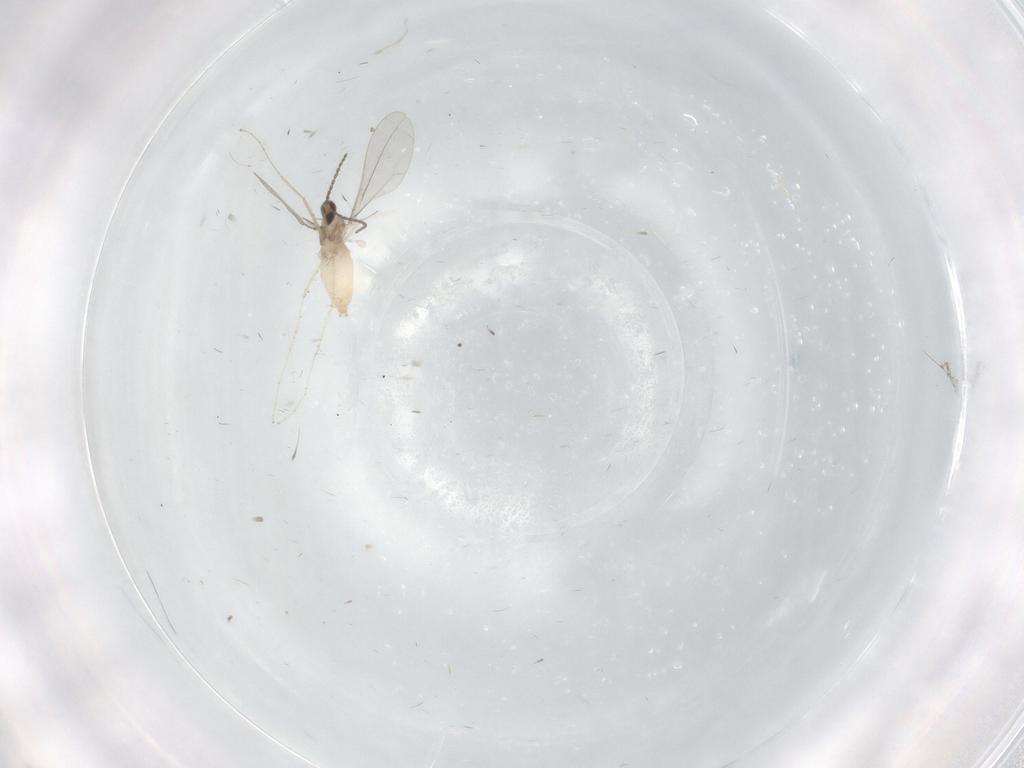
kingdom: Animalia
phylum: Arthropoda
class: Insecta
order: Diptera
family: Cecidomyiidae
